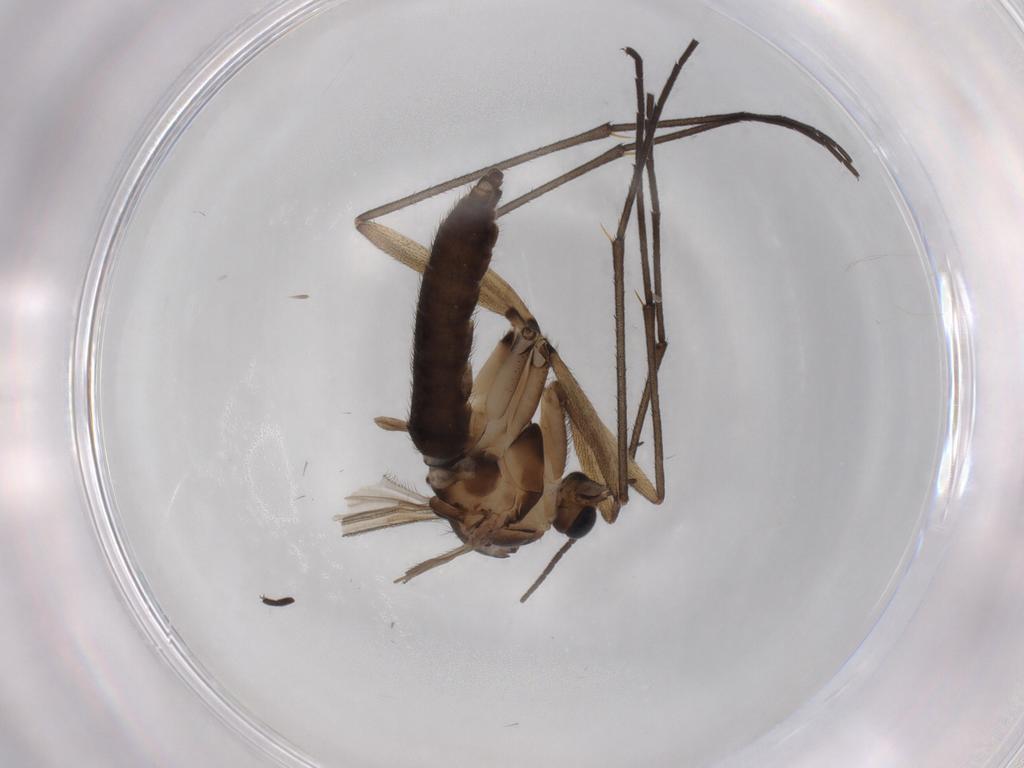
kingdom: Animalia
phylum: Arthropoda
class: Insecta
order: Diptera
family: Sciaridae
